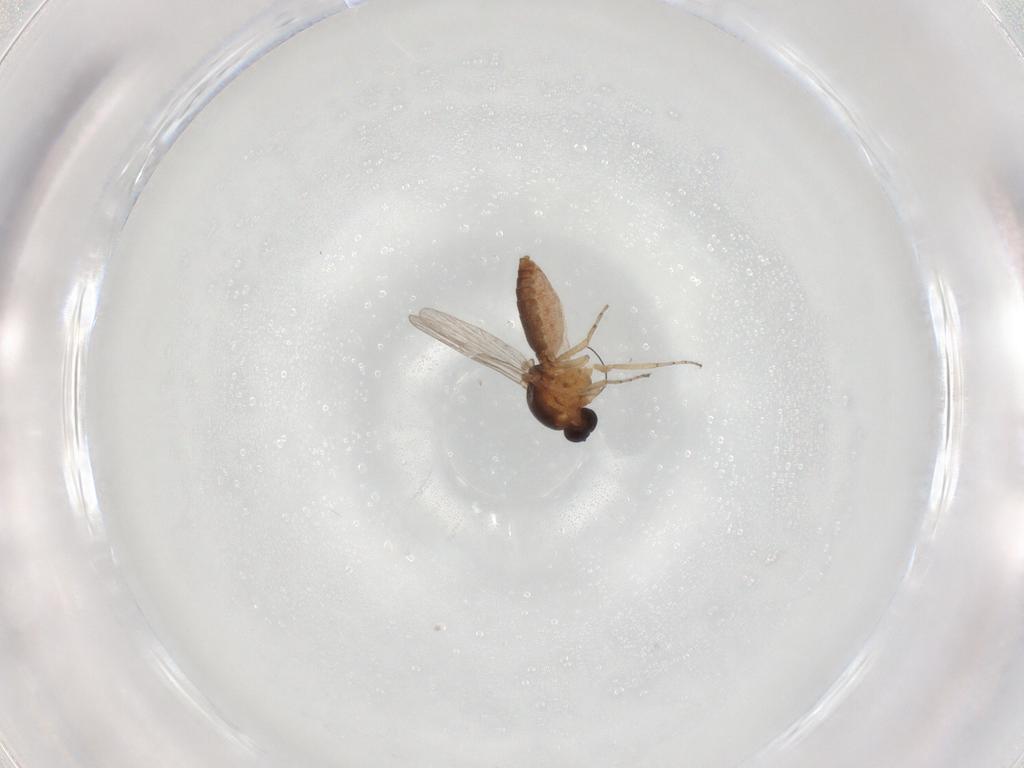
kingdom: Animalia
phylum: Arthropoda
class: Insecta
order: Diptera
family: Ceratopogonidae
